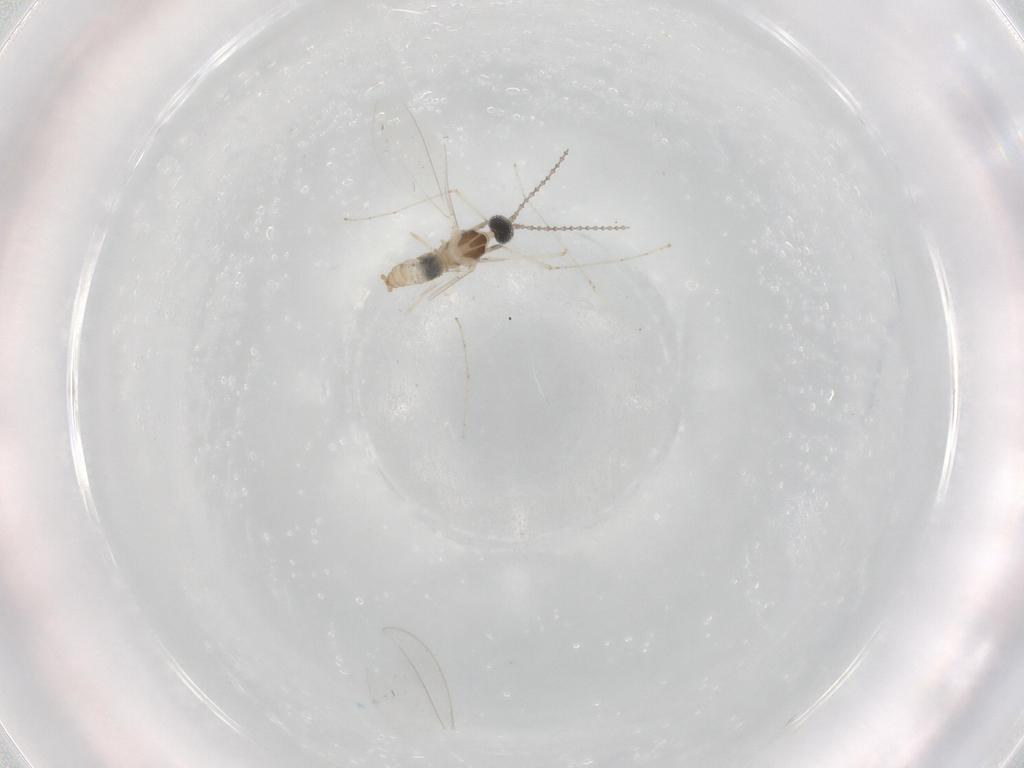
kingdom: Animalia
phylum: Arthropoda
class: Insecta
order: Diptera
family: Cecidomyiidae
